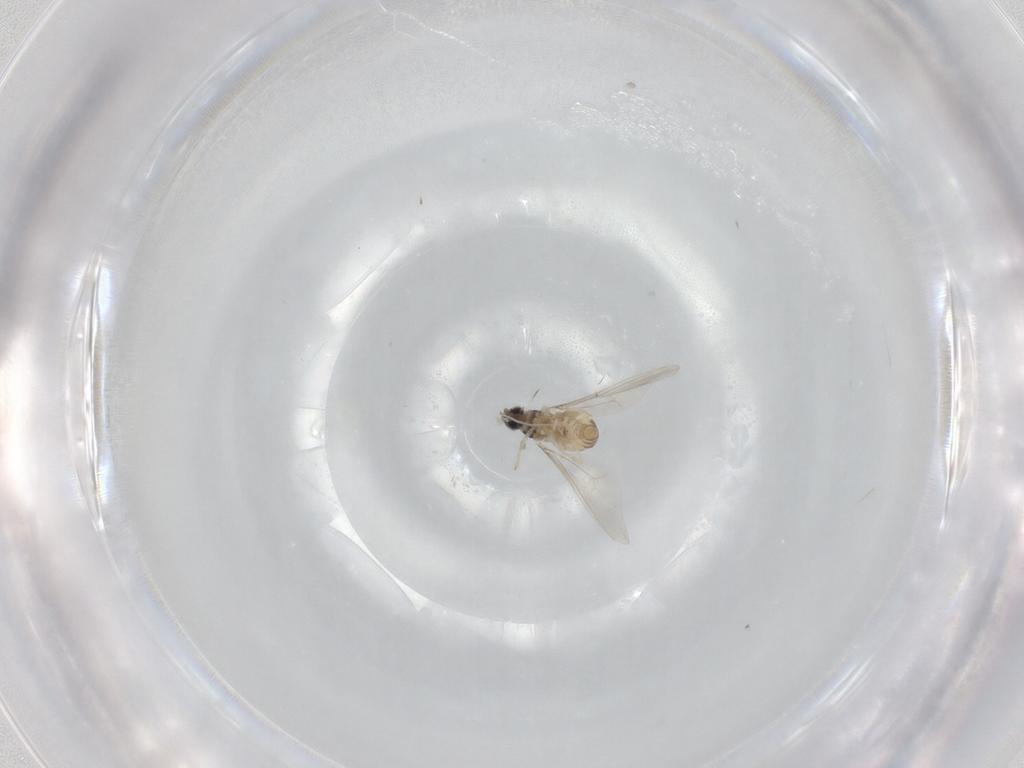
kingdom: Animalia
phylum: Arthropoda
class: Insecta
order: Diptera
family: Cecidomyiidae
